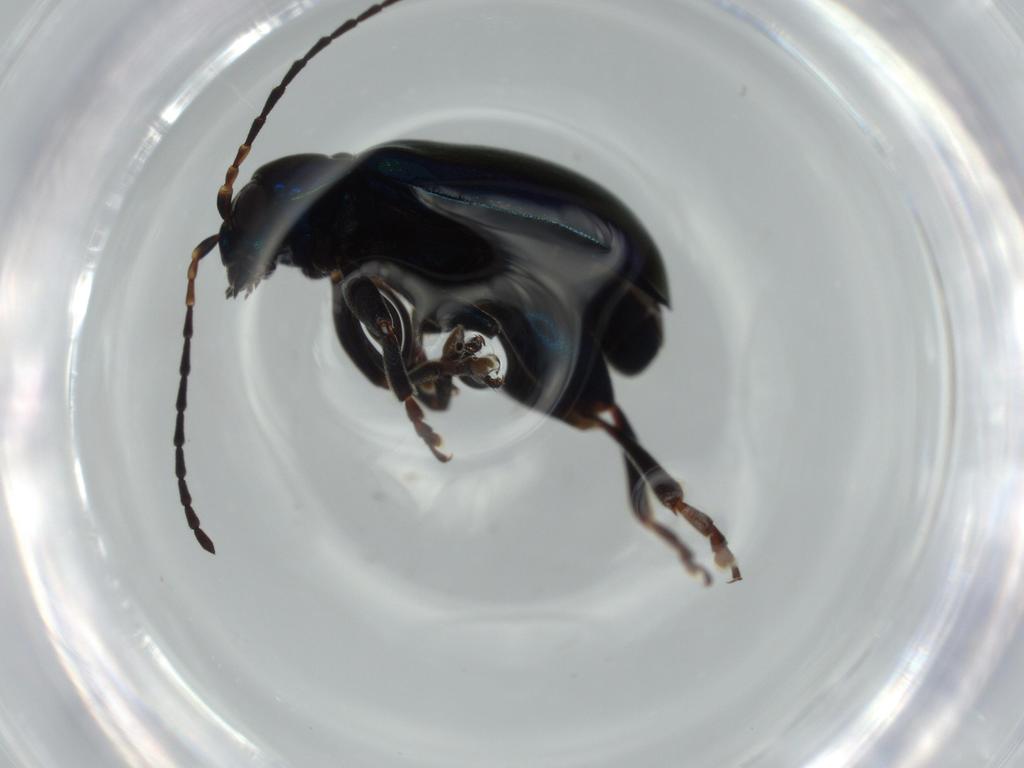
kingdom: Animalia
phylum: Arthropoda
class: Insecta
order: Coleoptera
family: Chrysomelidae
